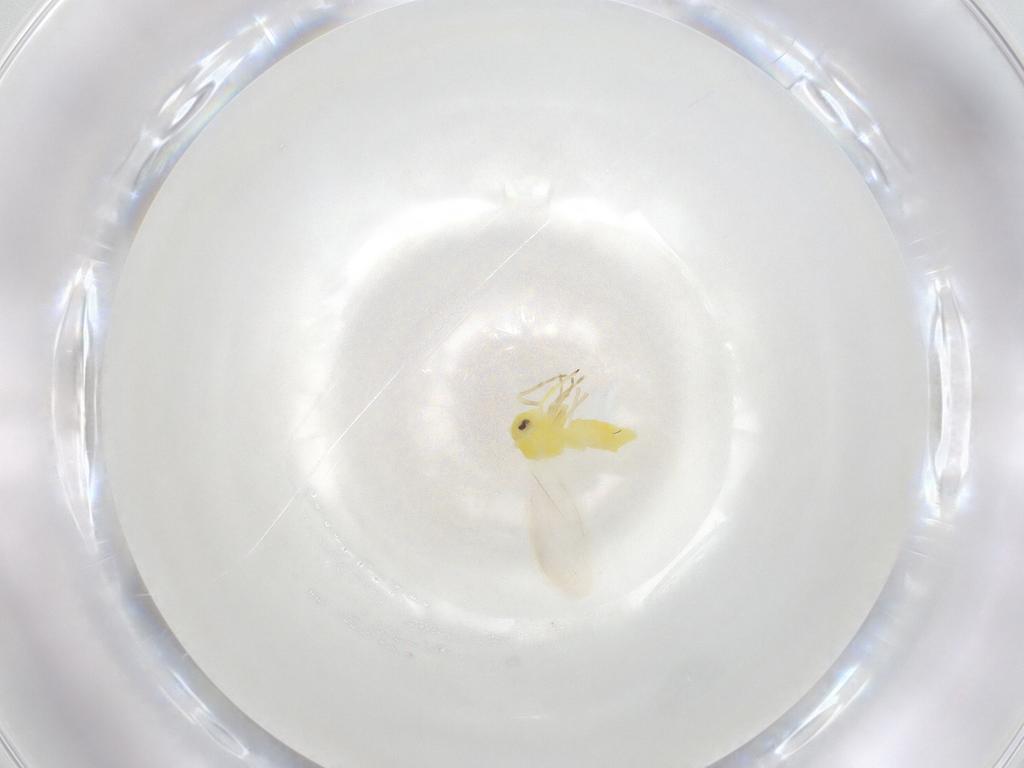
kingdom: Animalia
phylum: Arthropoda
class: Insecta
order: Hemiptera
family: Aleyrodidae
